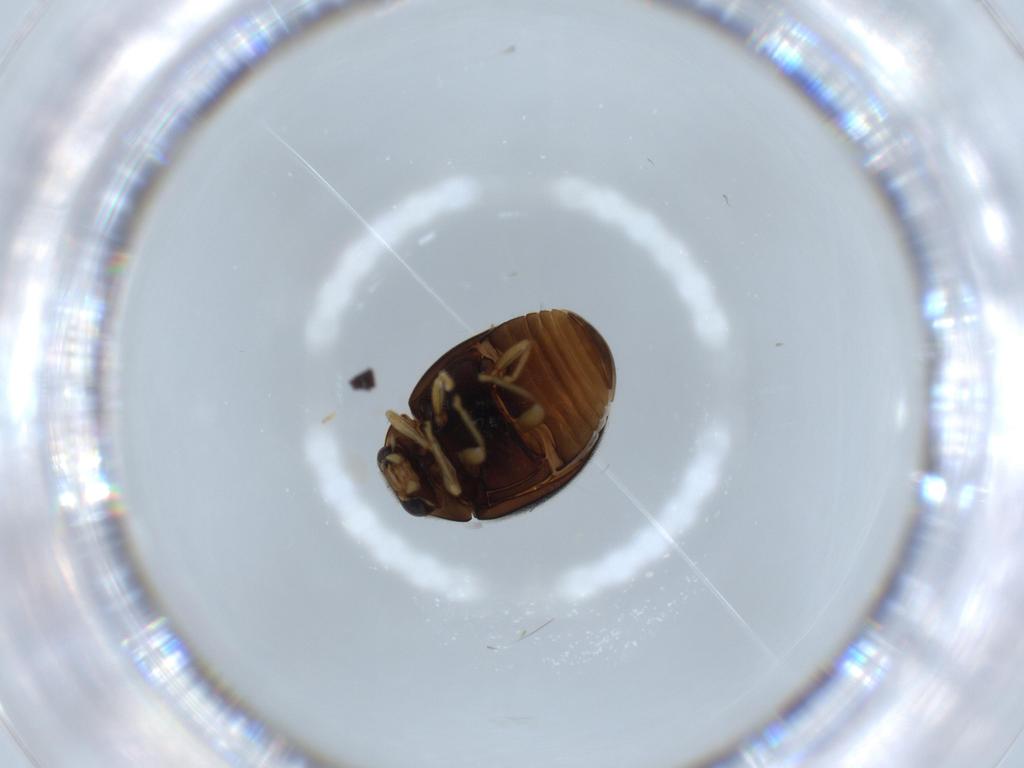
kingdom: Animalia
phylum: Arthropoda
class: Insecta
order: Coleoptera
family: Coccinellidae
